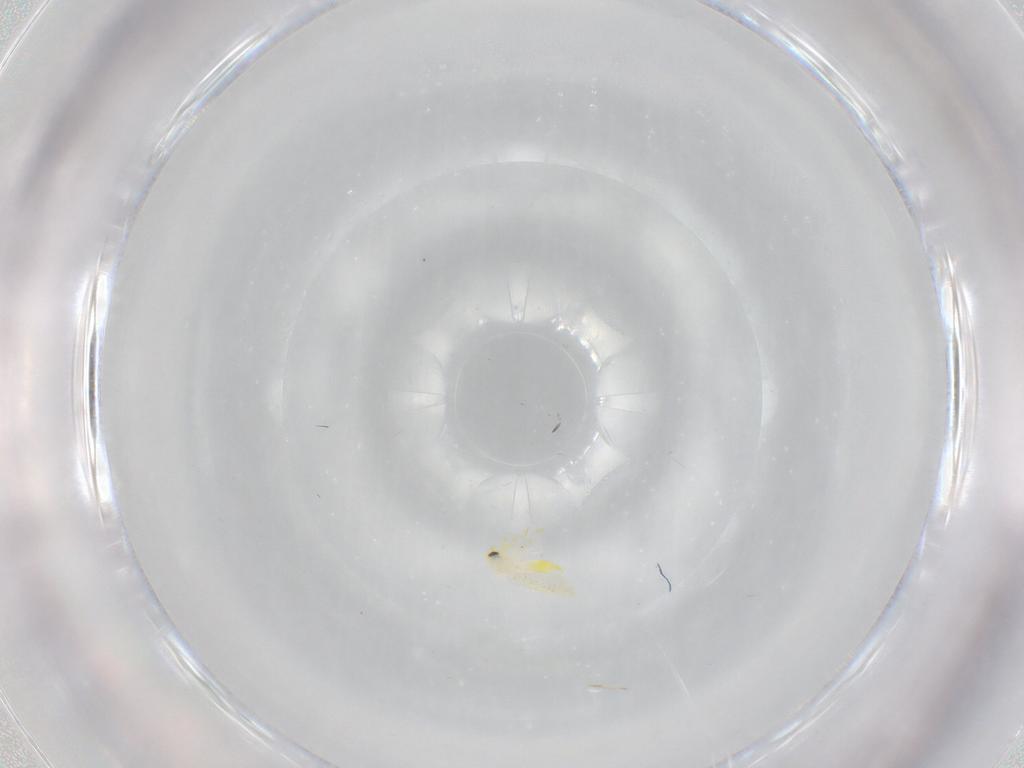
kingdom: Animalia
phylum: Arthropoda
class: Insecta
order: Hemiptera
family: Aleyrodidae
